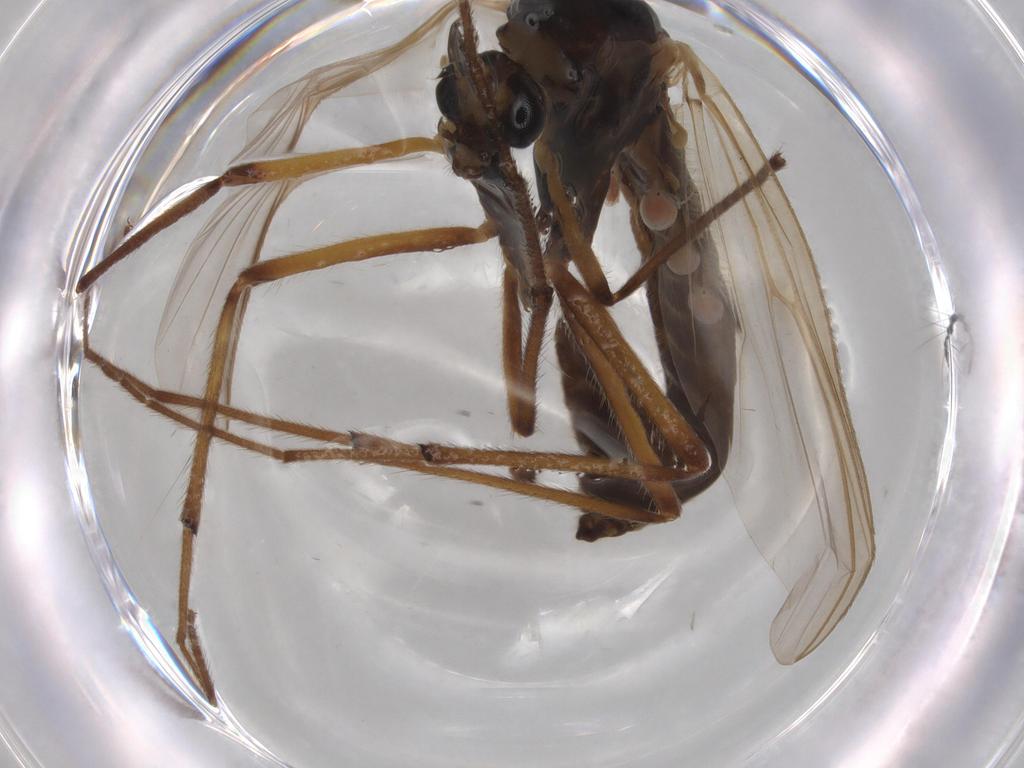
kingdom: Animalia
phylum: Arthropoda
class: Insecta
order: Diptera
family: Chironomidae
